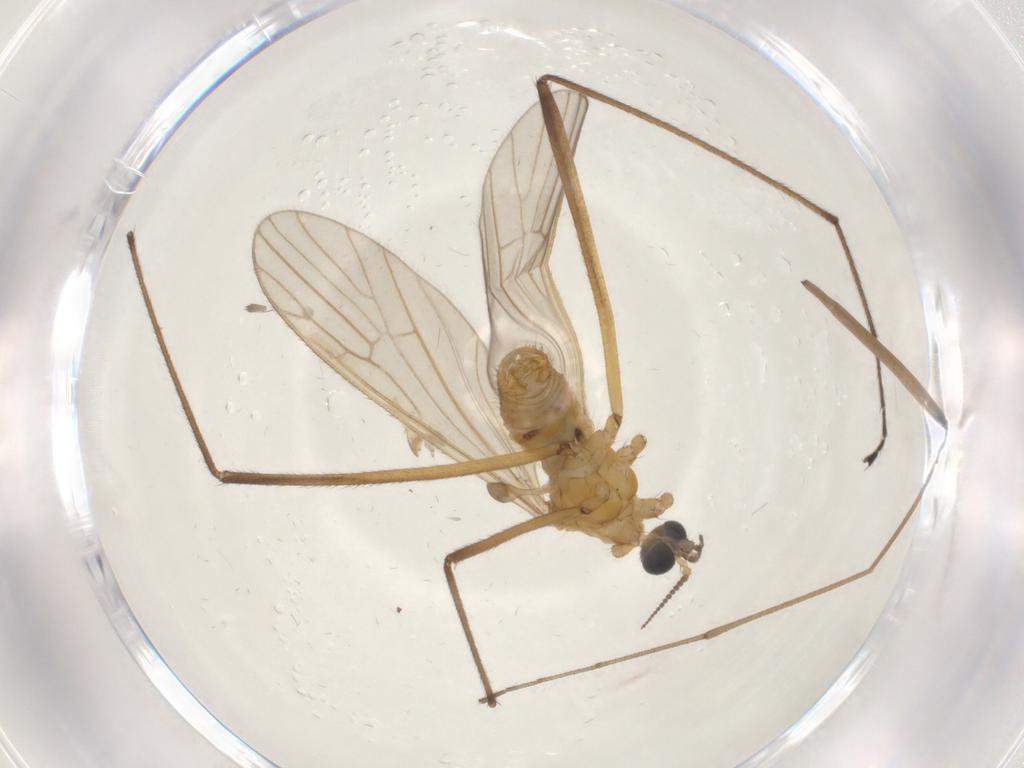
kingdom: Animalia
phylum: Arthropoda
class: Insecta
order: Diptera
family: Limoniidae
